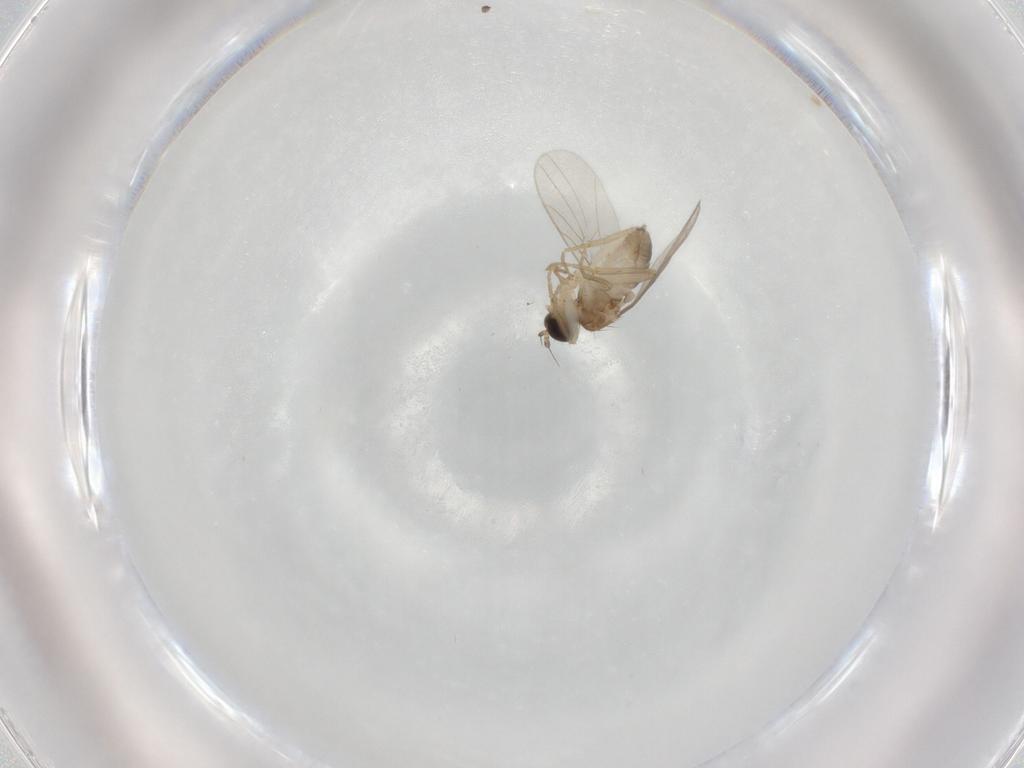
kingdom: Animalia
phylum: Arthropoda
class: Insecta
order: Diptera
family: Hybotidae
